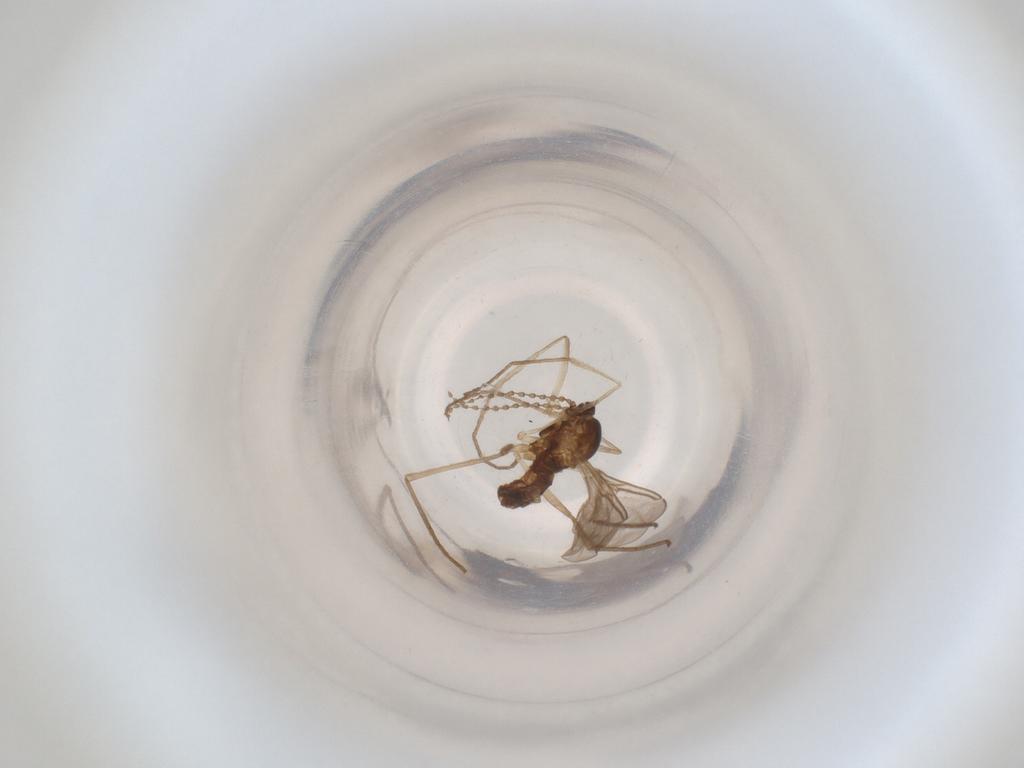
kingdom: Animalia
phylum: Arthropoda
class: Insecta
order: Diptera
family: Cecidomyiidae
